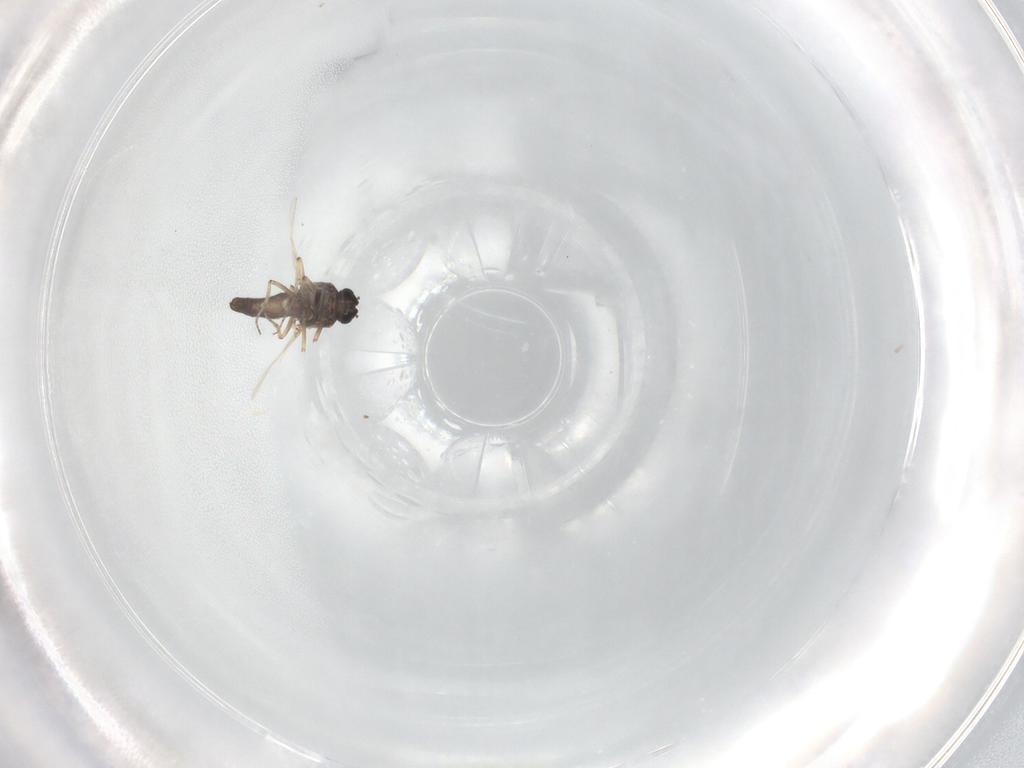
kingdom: Animalia
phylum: Arthropoda
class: Insecta
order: Diptera
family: Ceratopogonidae
